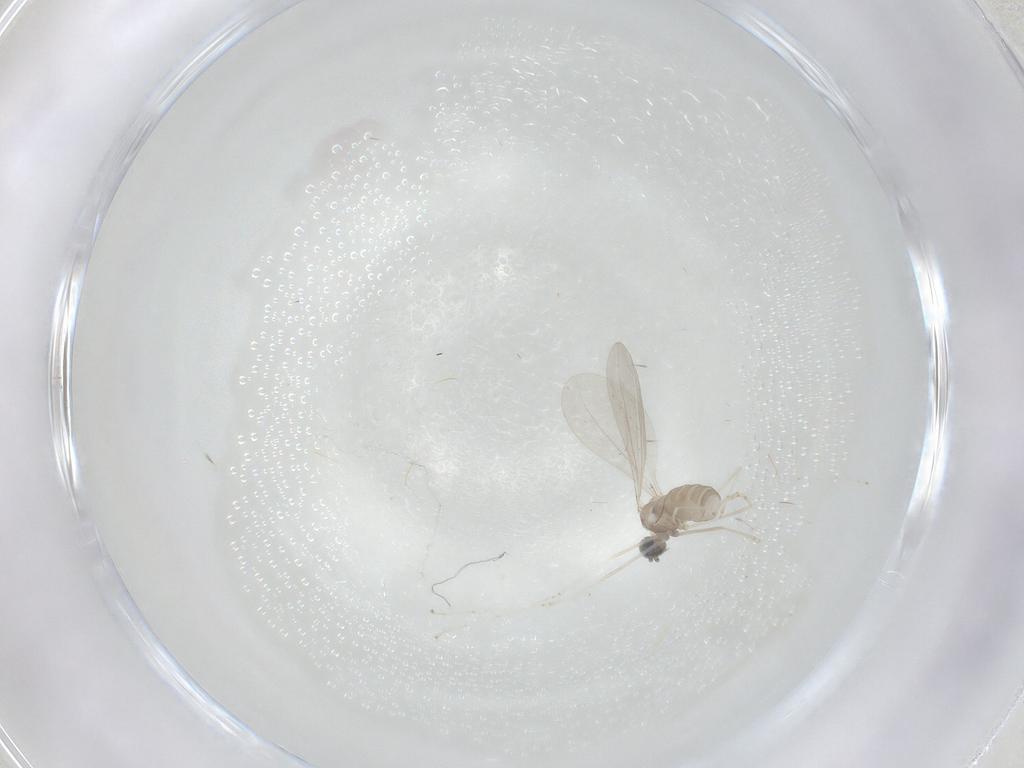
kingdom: Animalia
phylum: Arthropoda
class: Insecta
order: Diptera
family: Cecidomyiidae
